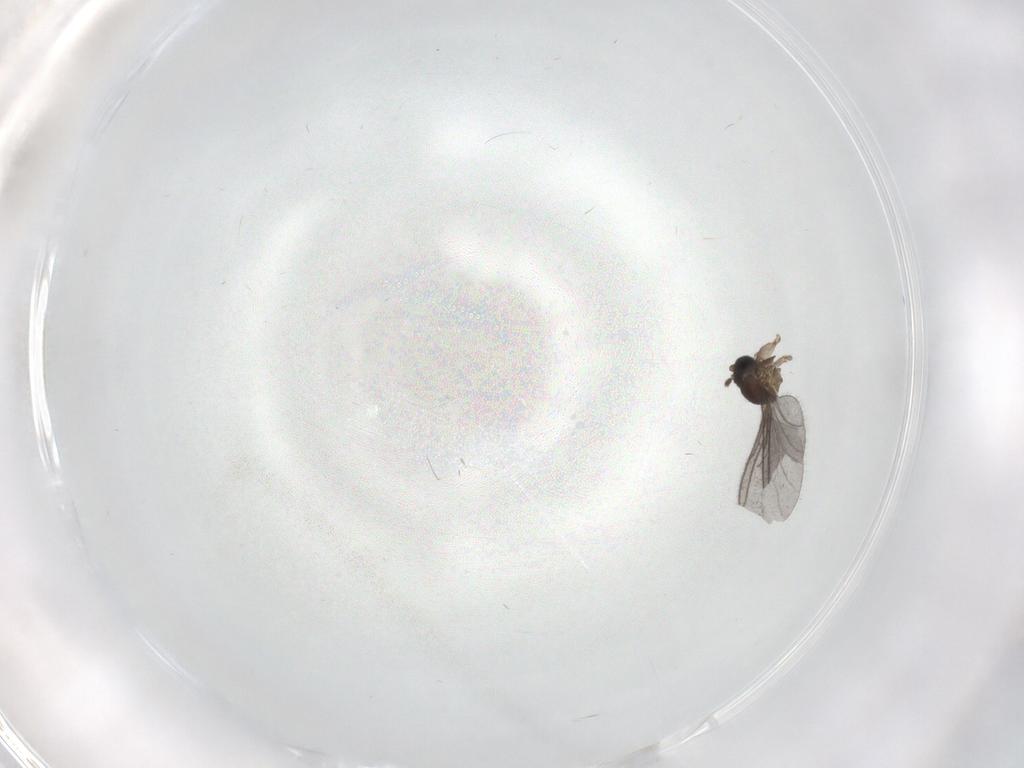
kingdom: Animalia
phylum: Arthropoda
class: Insecta
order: Diptera
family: Sciaridae
